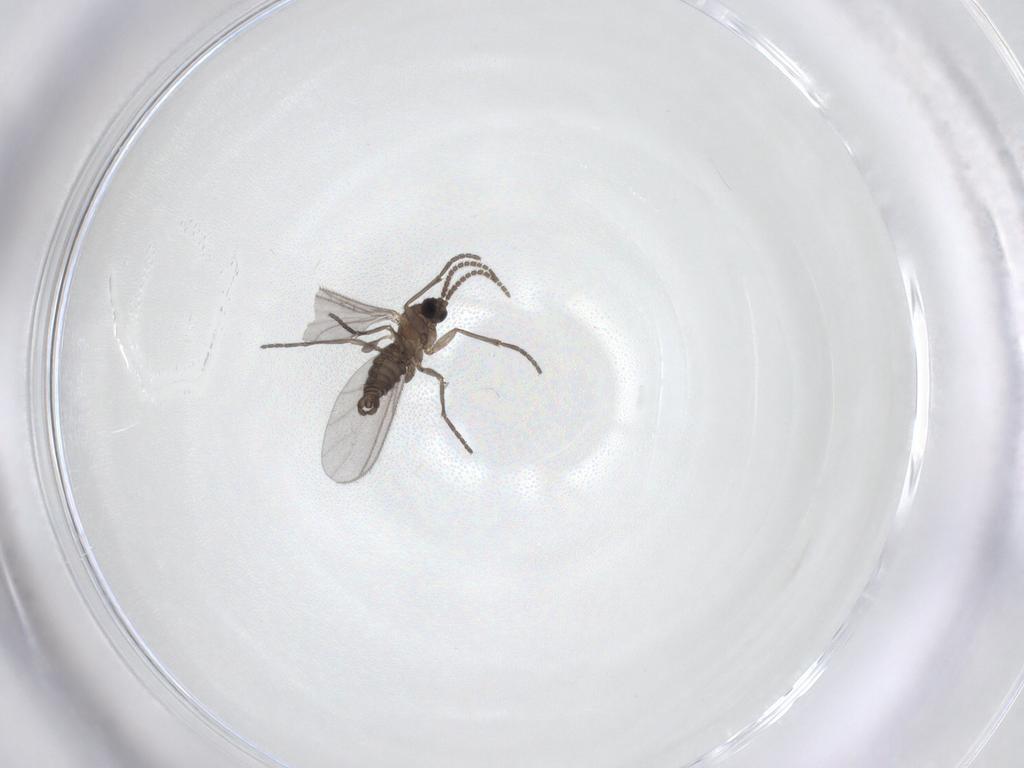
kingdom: Animalia
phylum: Arthropoda
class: Insecta
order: Diptera
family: Sciaridae
